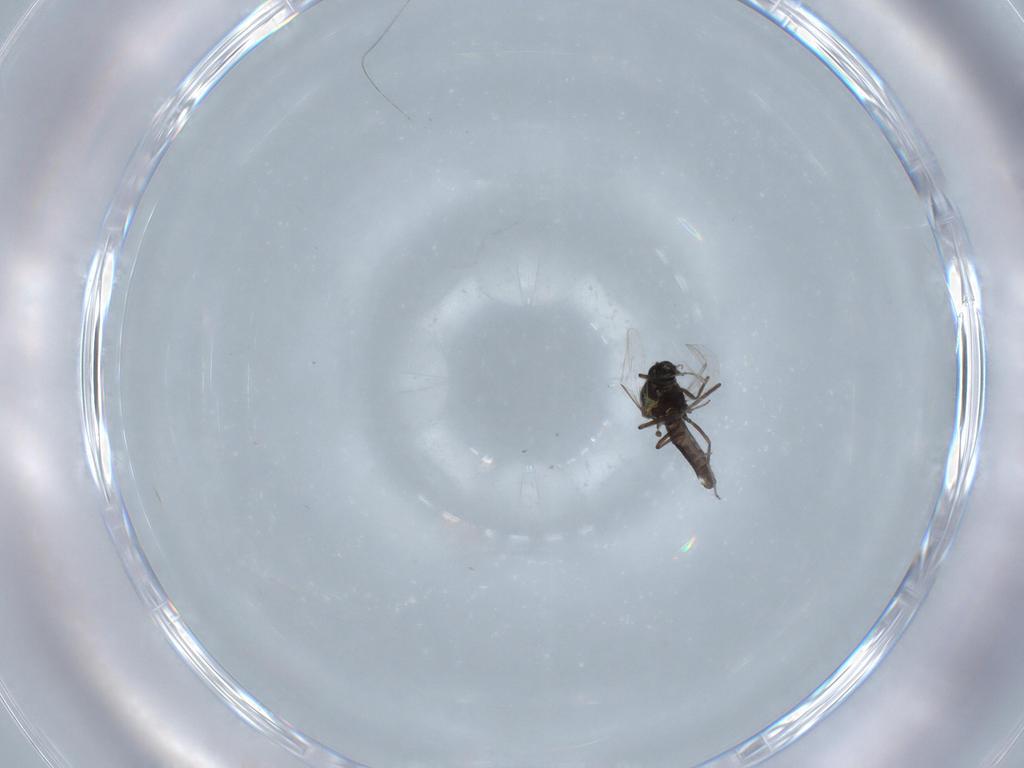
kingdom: Animalia
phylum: Arthropoda
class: Insecta
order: Diptera
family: Ceratopogonidae
